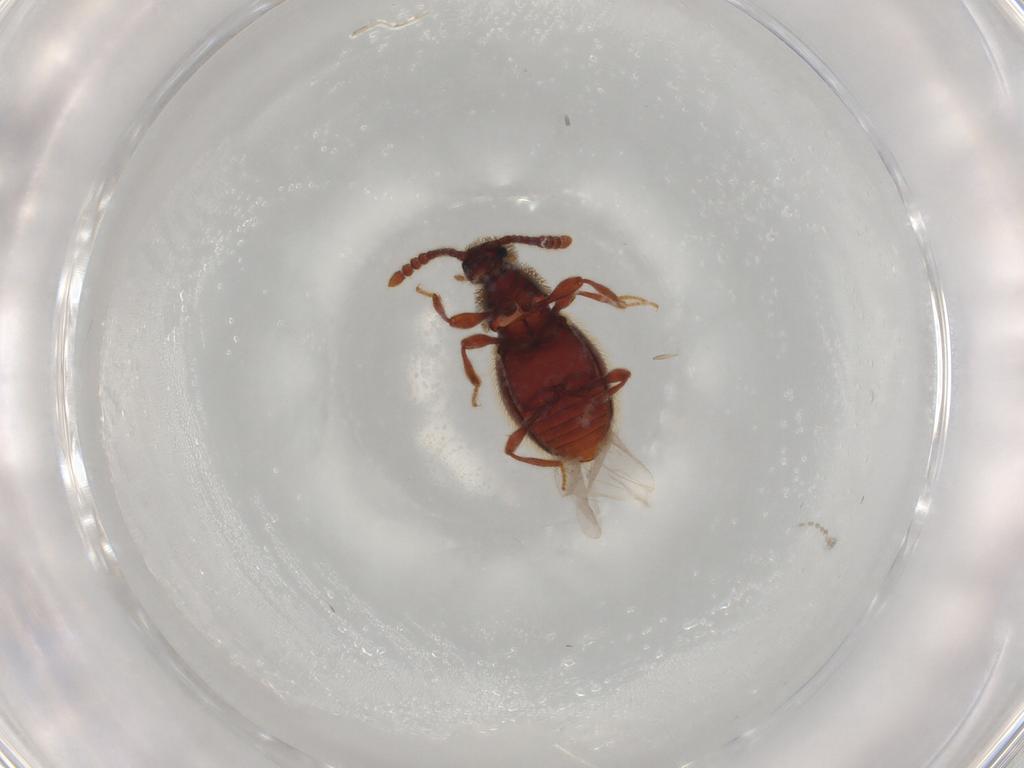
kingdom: Animalia
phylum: Arthropoda
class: Insecta
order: Coleoptera
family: Staphylinidae
